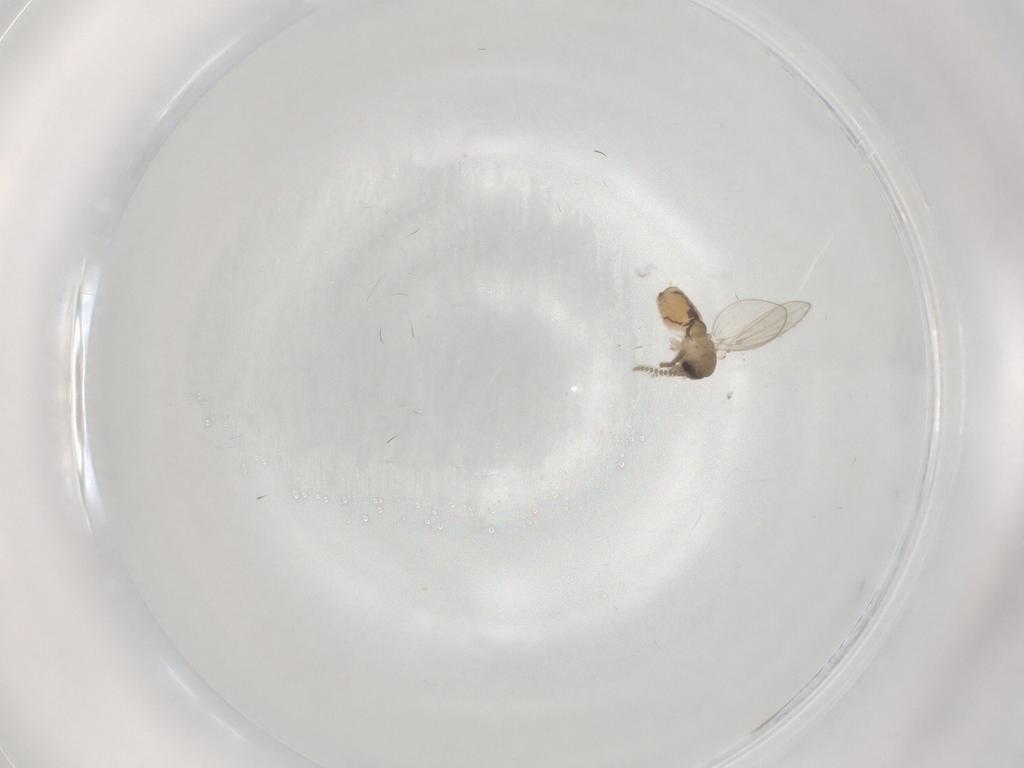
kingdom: Animalia
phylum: Arthropoda
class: Insecta
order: Diptera
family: Psychodidae
